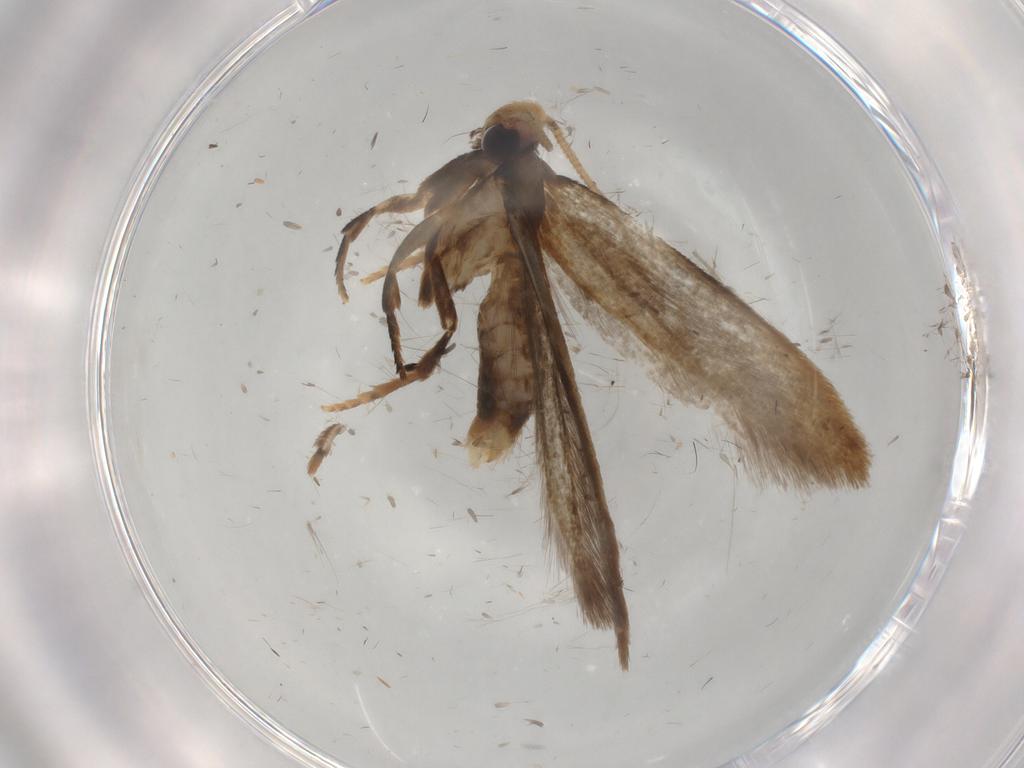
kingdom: Animalia
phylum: Arthropoda
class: Insecta
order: Lepidoptera
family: Coleophoridae
